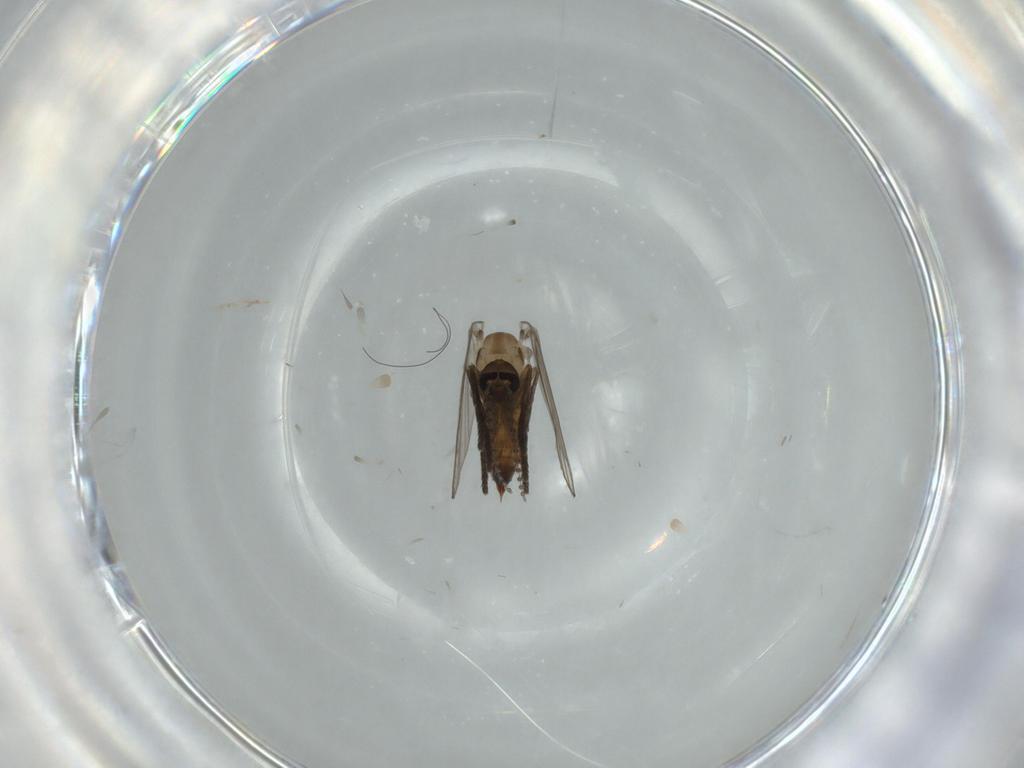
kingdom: Animalia
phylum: Arthropoda
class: Insecta
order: Diptera
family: Psychodidae
